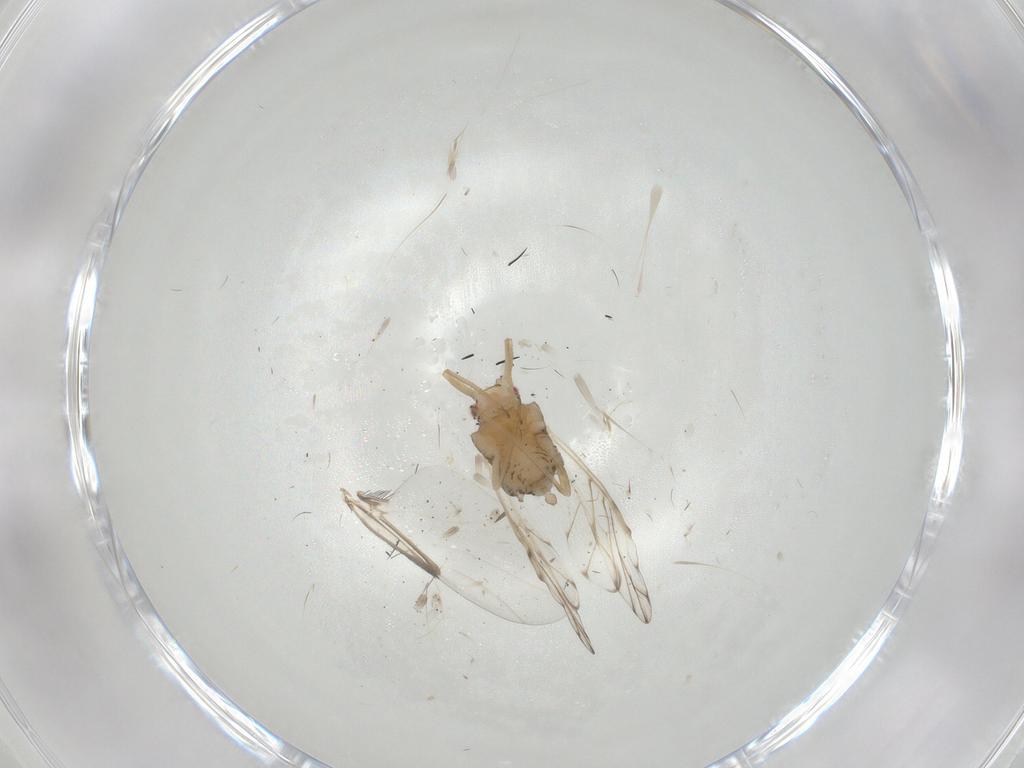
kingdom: Animalia
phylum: Arthropoda
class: Insecta
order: Hemiptera
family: Aphididae
